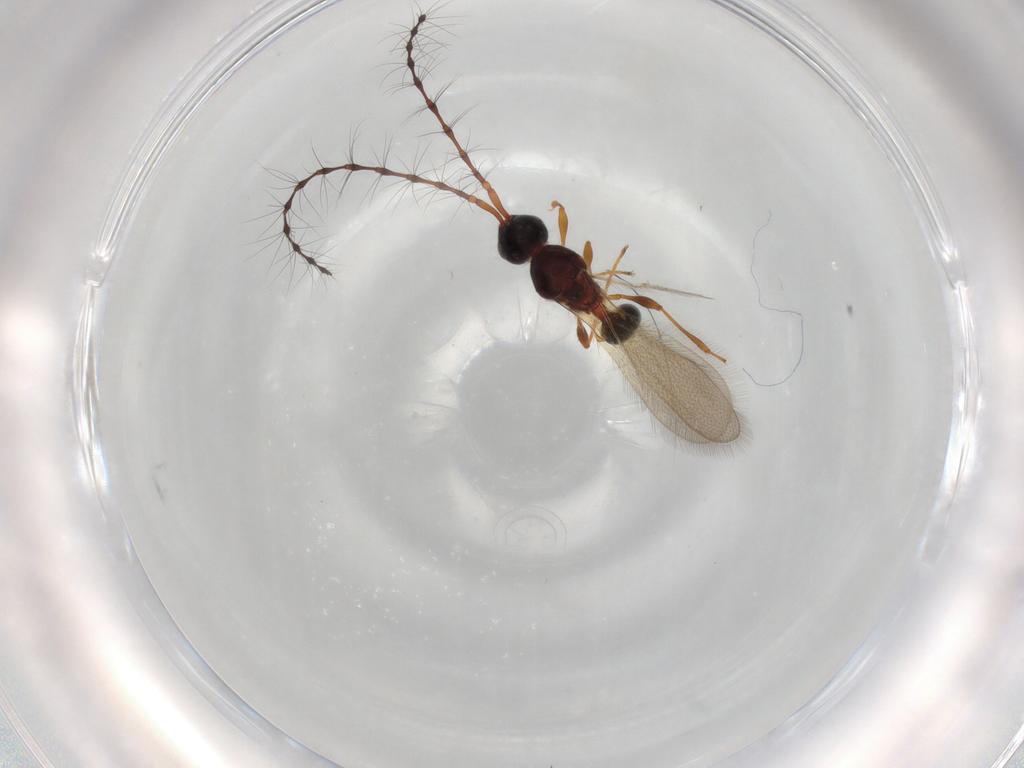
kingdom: Animalia
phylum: Arthropoda
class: Insecta
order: Hymenoptera
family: Diapriidae
